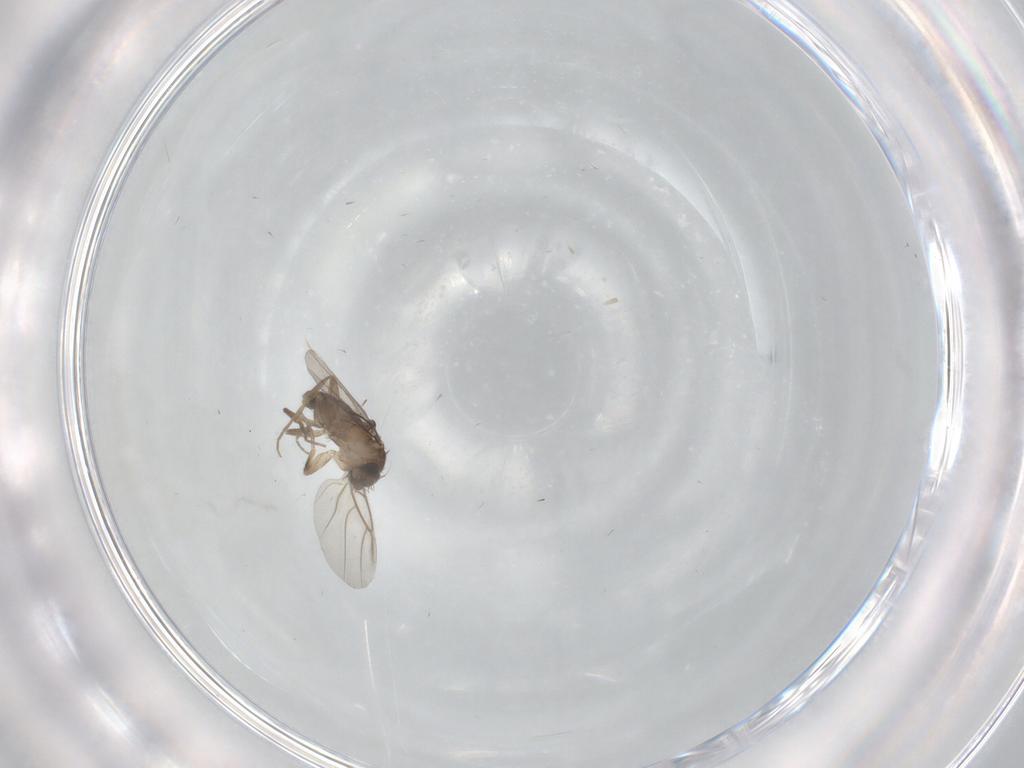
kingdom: Animalia
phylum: Arthropoda
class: Insecta
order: Diptera
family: Phoridae
